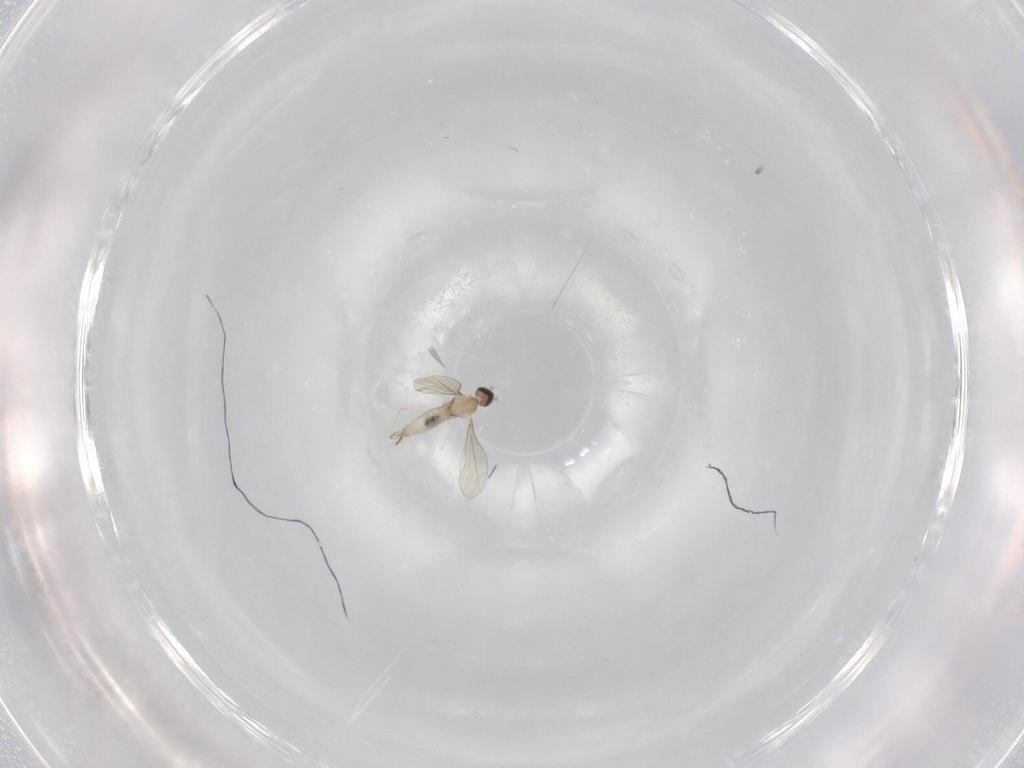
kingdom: Animalia
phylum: Arthropoda
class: Insecta
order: Diptera
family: Cecidomyiidae
